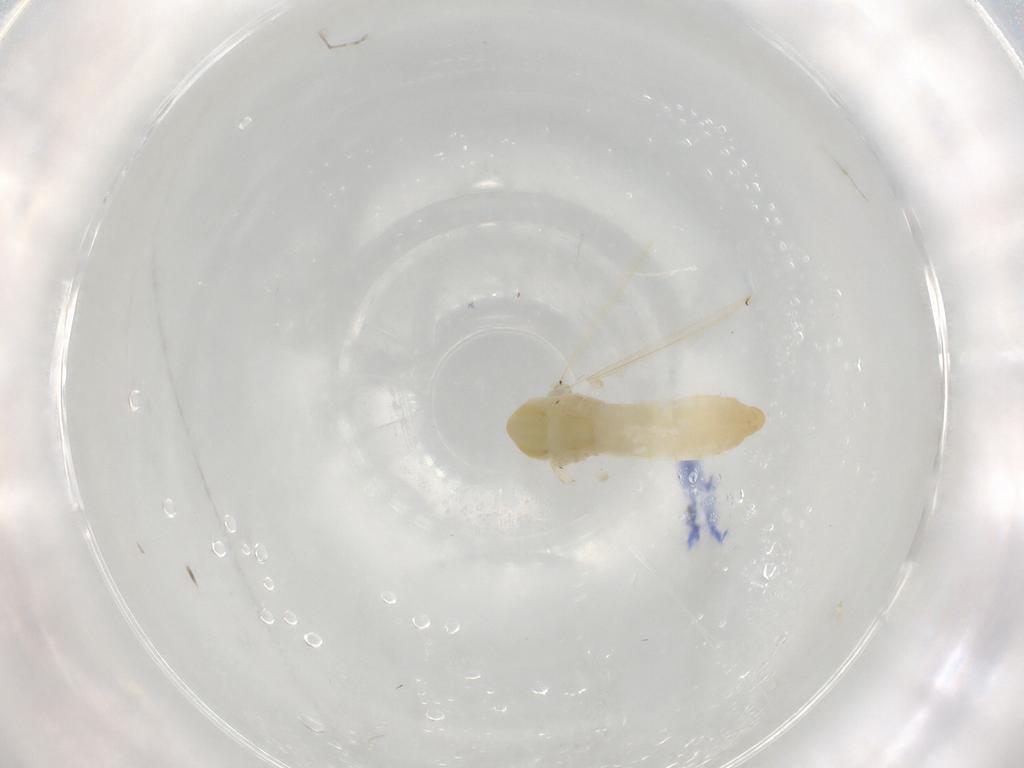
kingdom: Animalia
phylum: Arthropoda
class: Insecta
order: Diptera
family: Chironomidae
